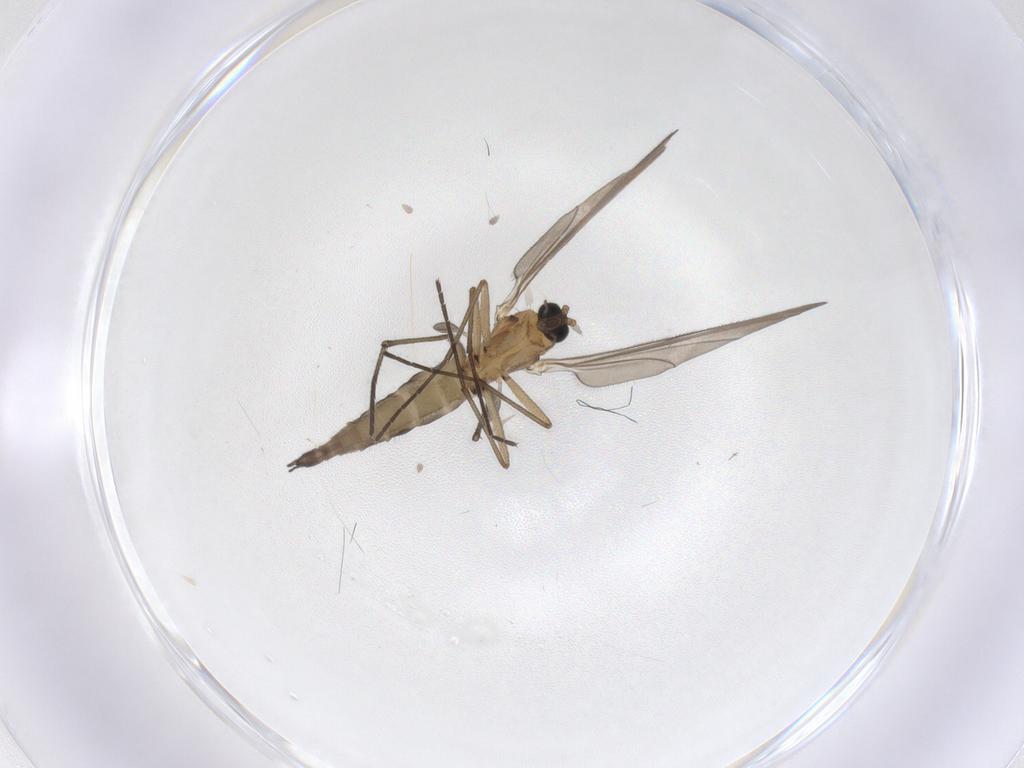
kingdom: Animalia
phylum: Arthropoda
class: Insecta
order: Diptera
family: Sciaridae
